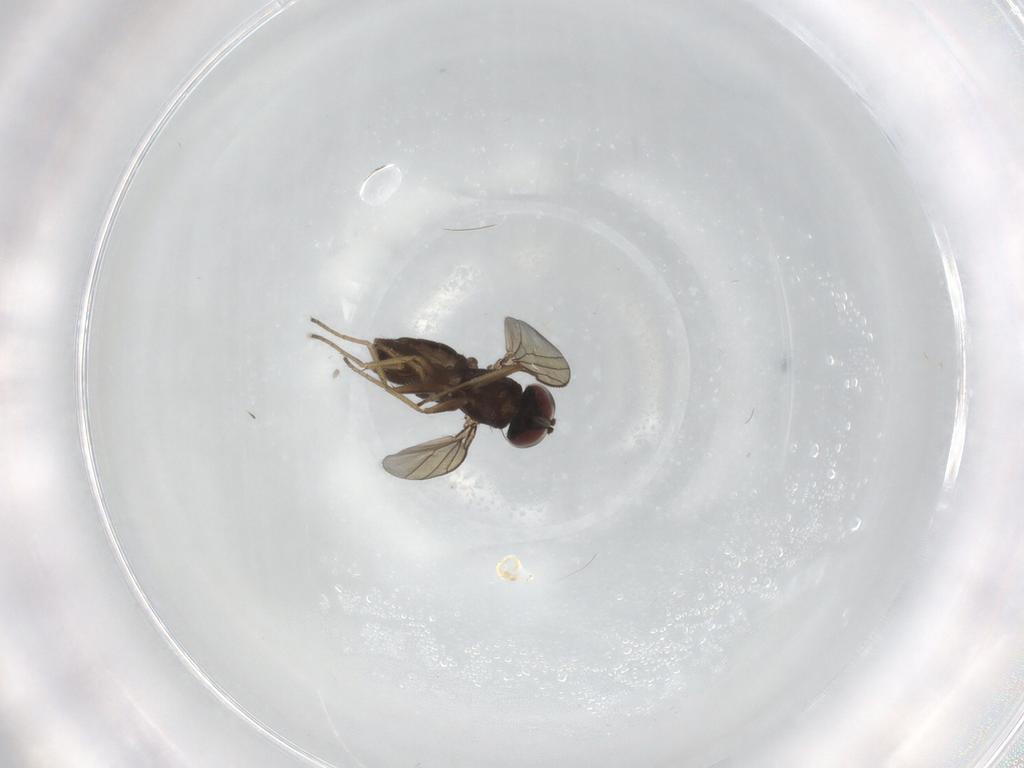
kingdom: Animalia
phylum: Arthropoda
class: Insecta
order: Diptera
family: Dolichopodidae
